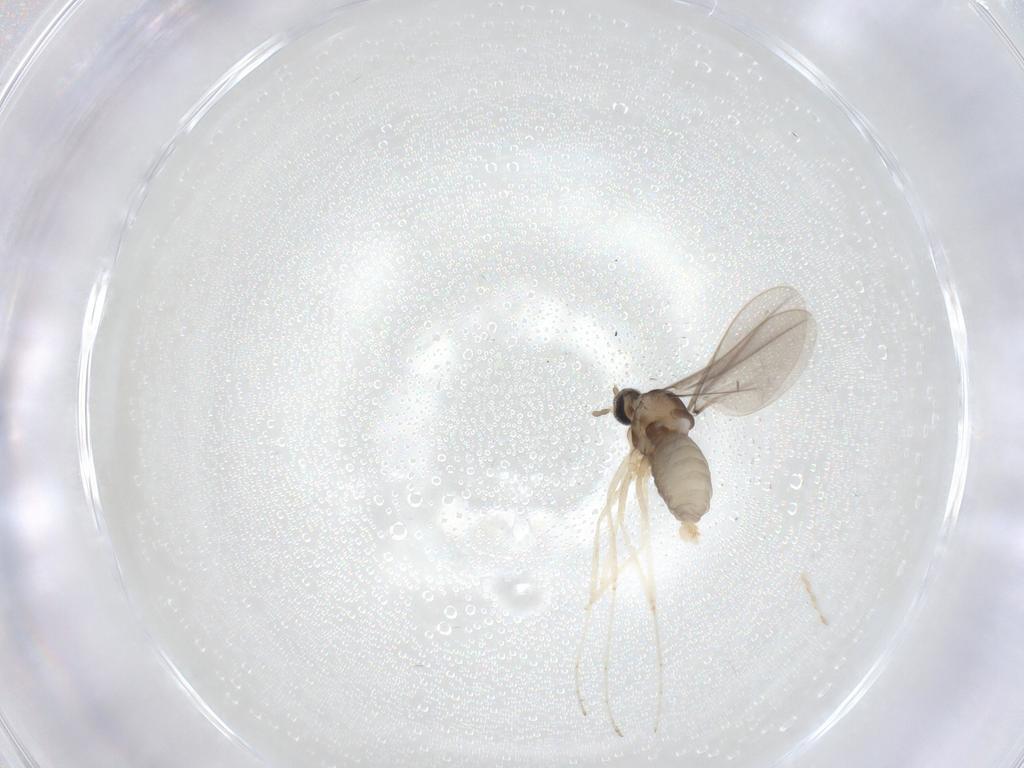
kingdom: Animalia
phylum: Arthropoda
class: Insecta
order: Diptera
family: Cecidomyiidae
